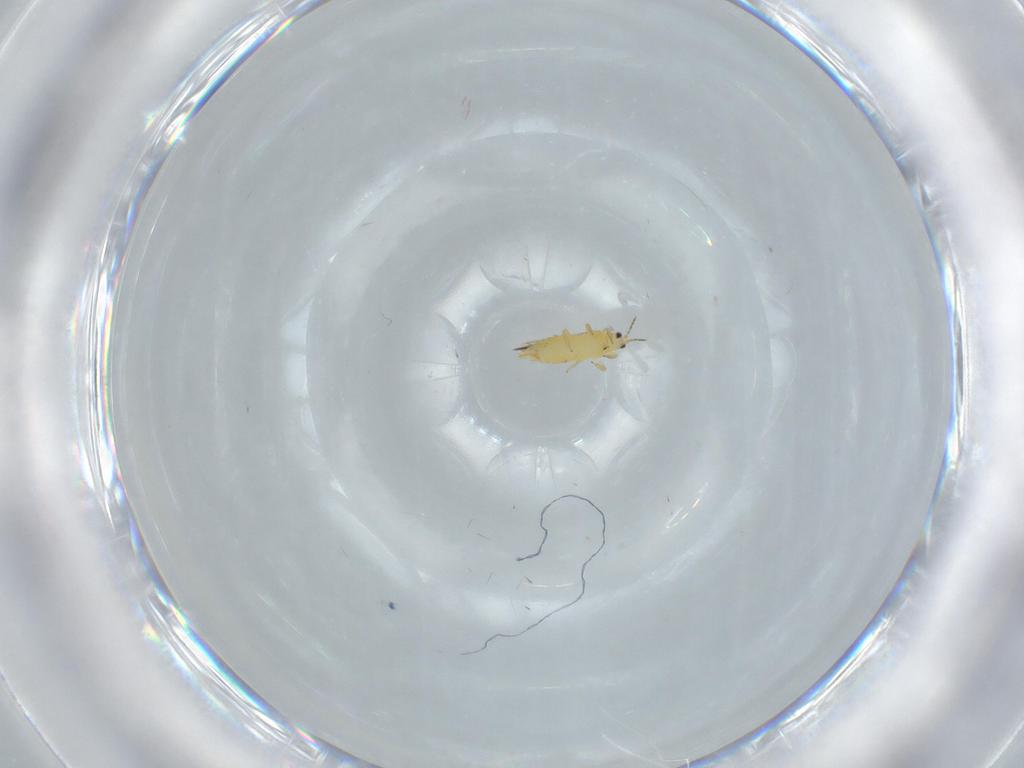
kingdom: Animalia
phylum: Arthropoda
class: Insecta
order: Thysanoptera
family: Thripidae
